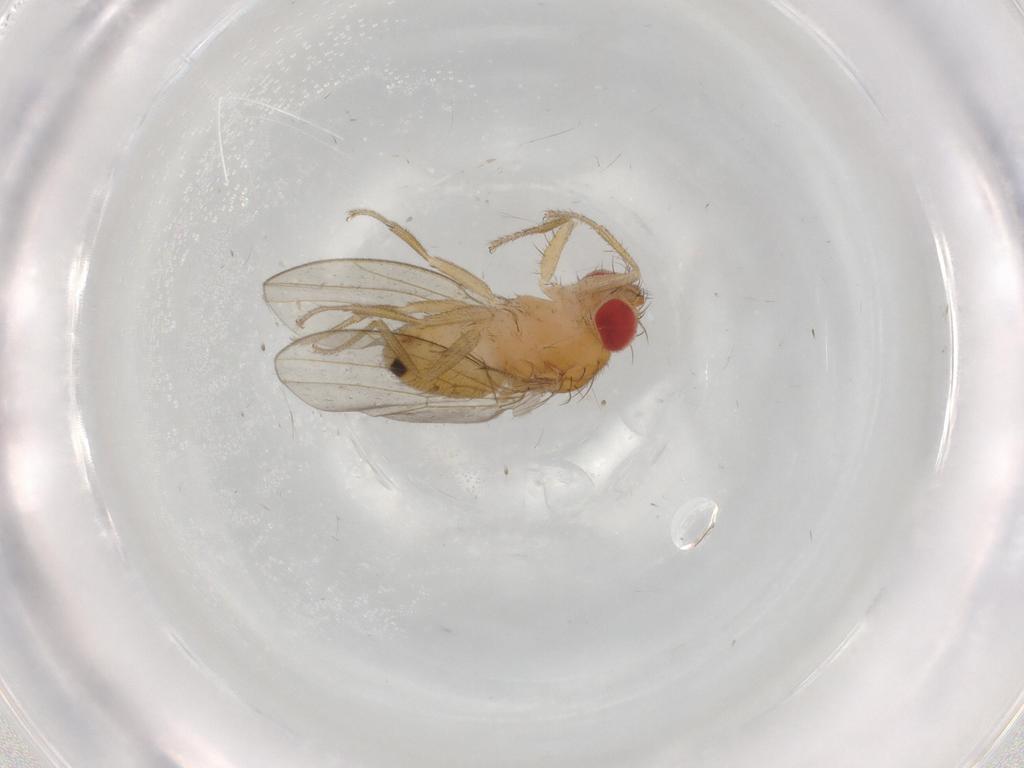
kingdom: Animalia
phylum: Arthropoda
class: Insecta
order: Diptera
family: Drosophilidae
